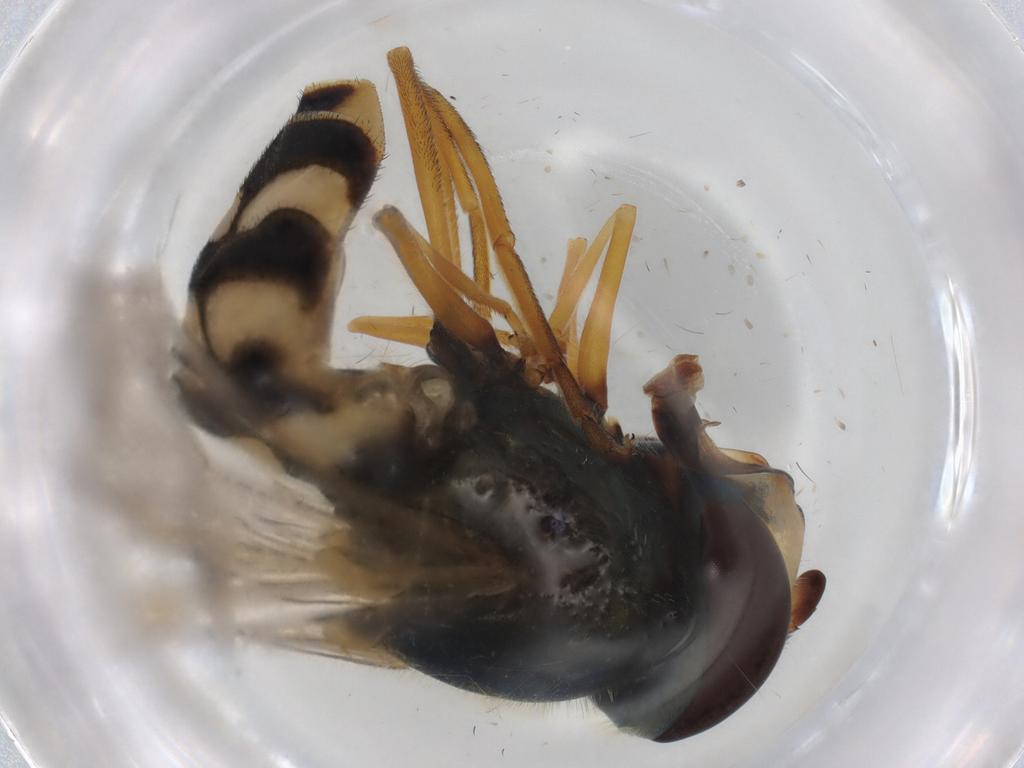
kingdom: Animalia
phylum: Arthropoda
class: Insecta
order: Diptera
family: Syrphidae
